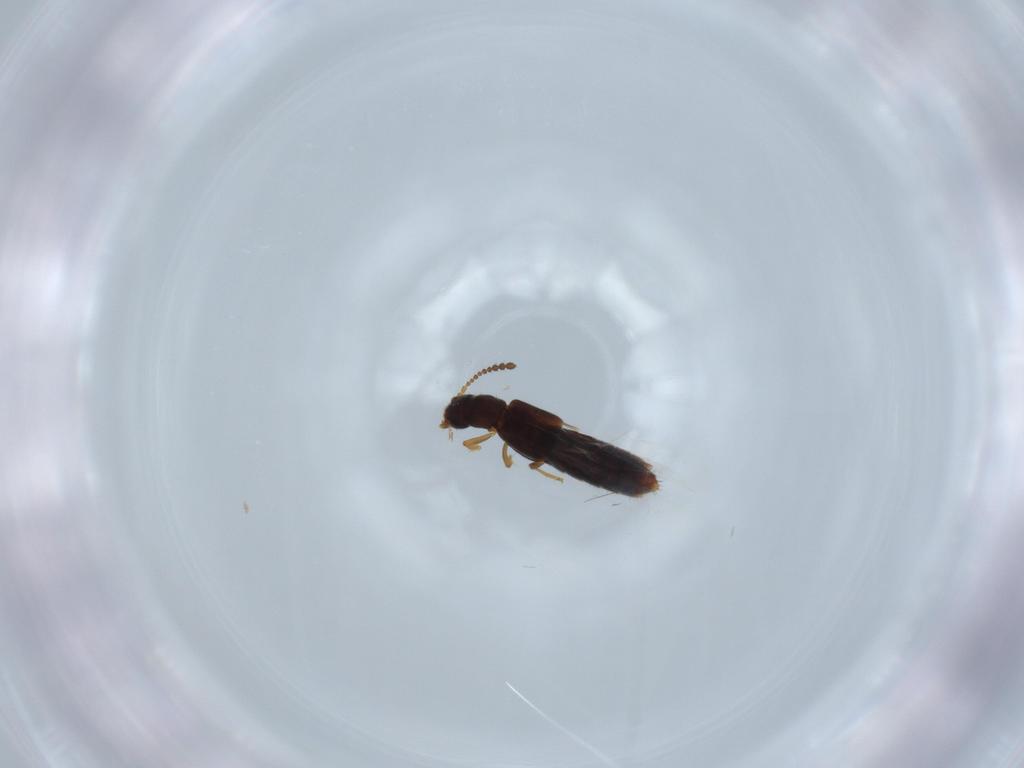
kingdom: Animalia
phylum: Arthropoda
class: Insecta
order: Coleoptera
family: Staphylinidae
